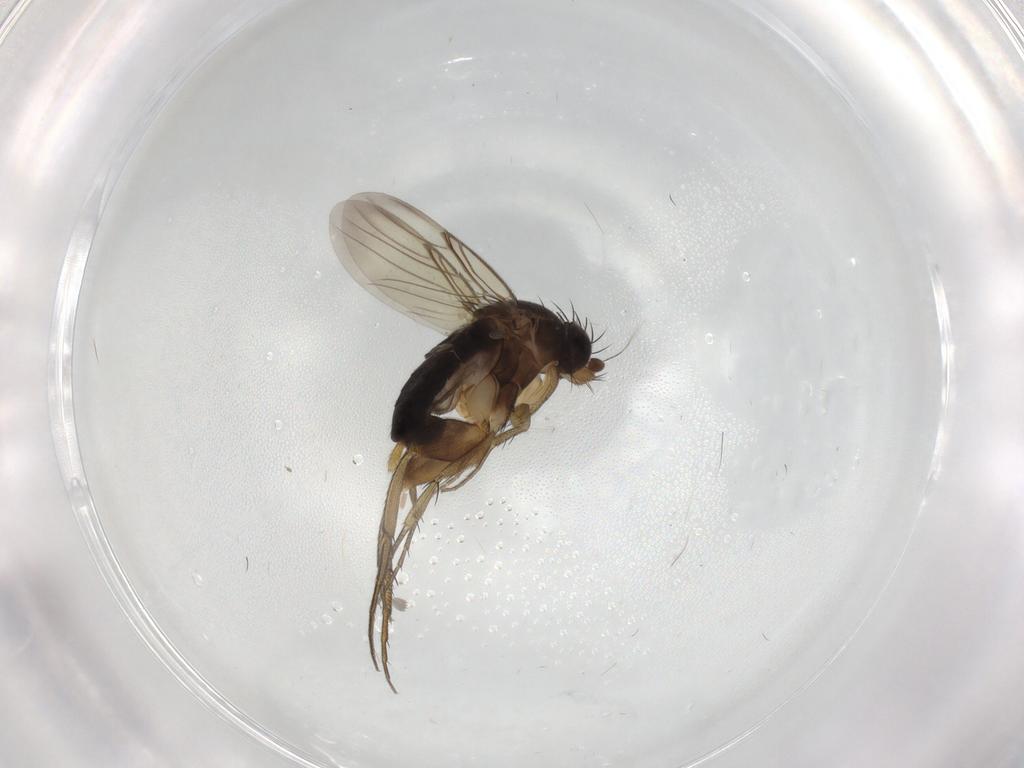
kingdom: Animalia
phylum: Arthropoda
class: Insecta
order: Diptera
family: Phoridae
